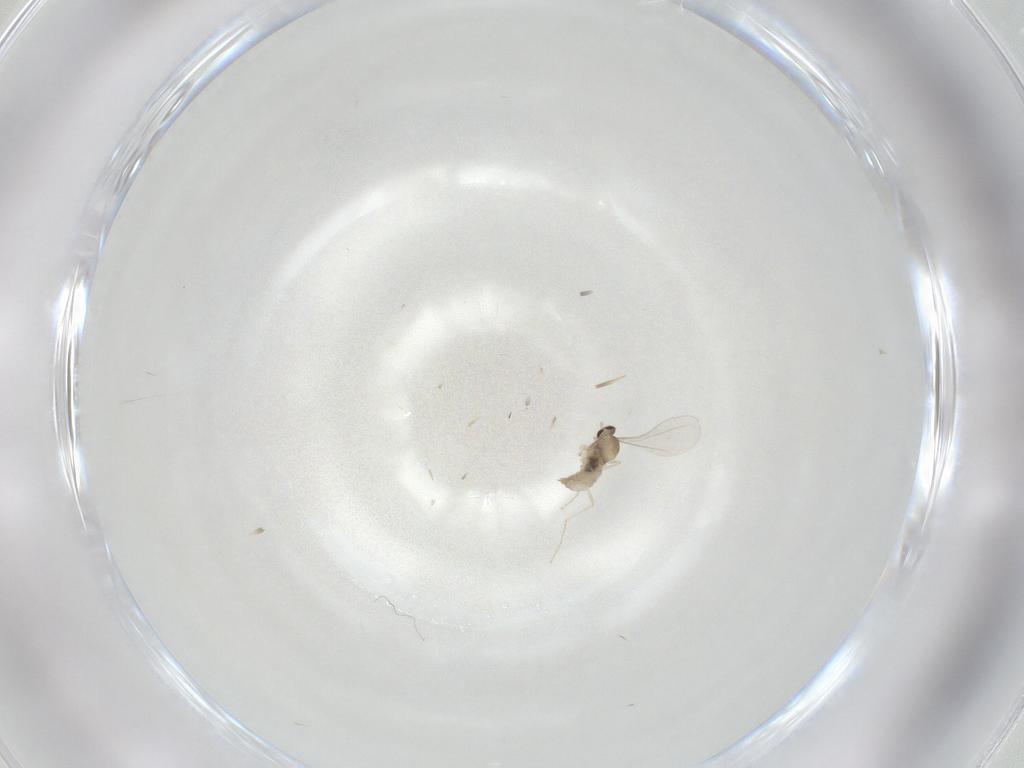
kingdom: Animalia
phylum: Arthropoda
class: Insecta
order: Diptera
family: Cecidomyiidae
